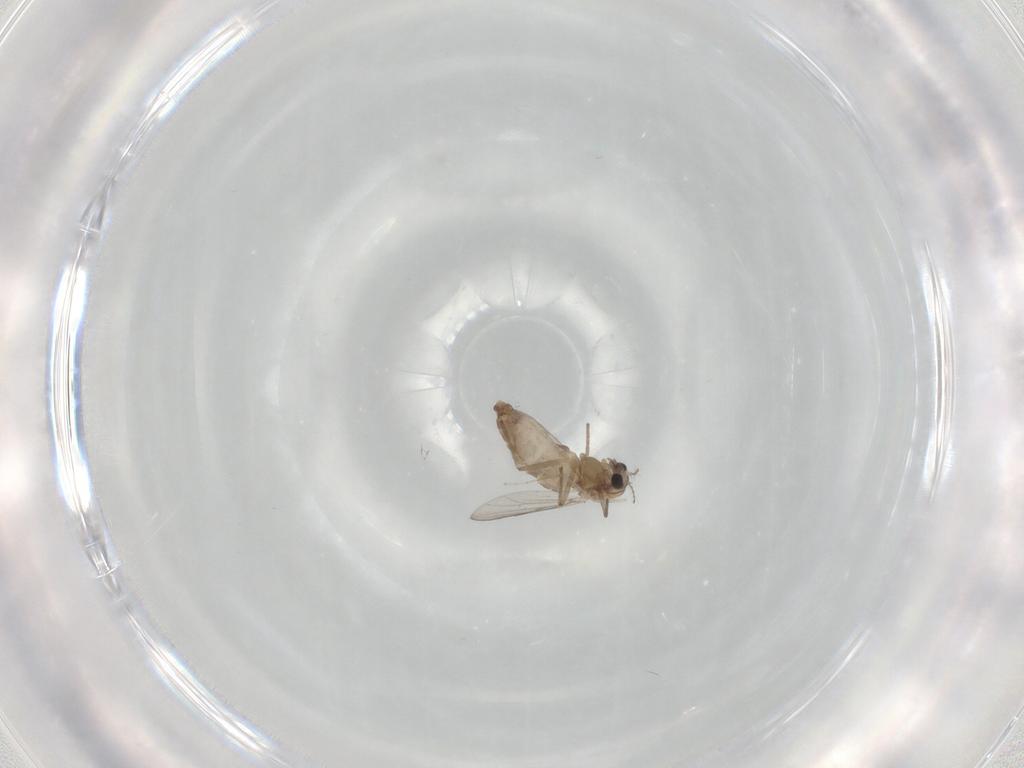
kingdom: Animalia
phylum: Arthropoda
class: Insecta
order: Diptera
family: Chironomidae
